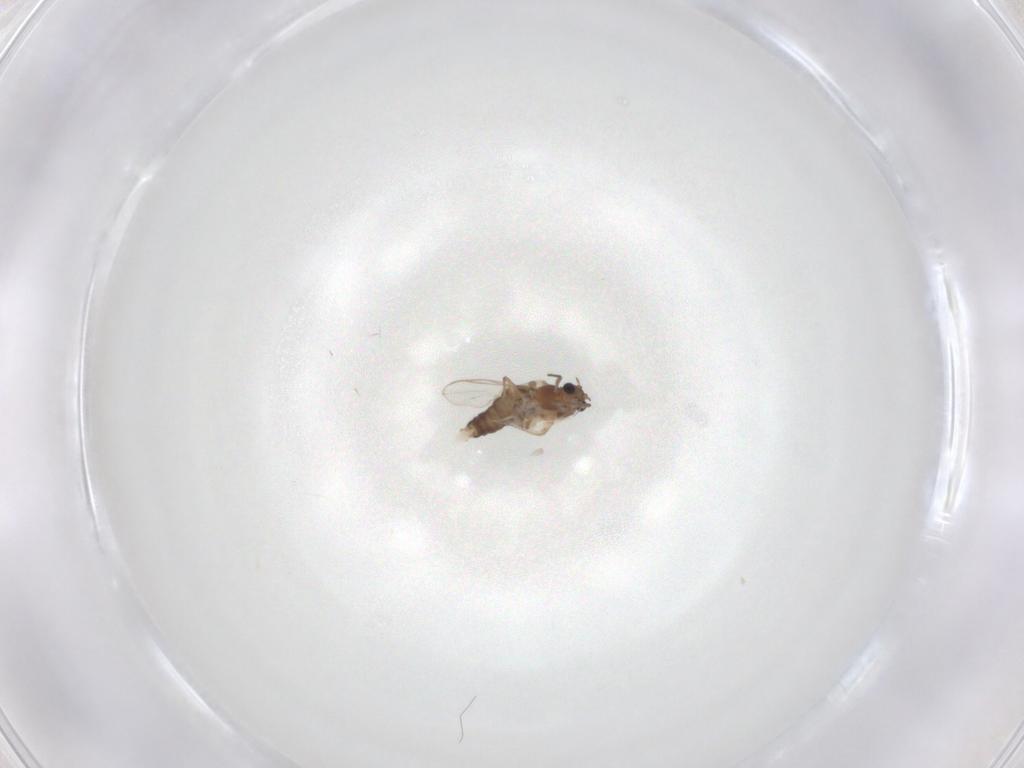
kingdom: Animalia
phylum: Arthropoda
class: Insecta
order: Diptera
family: Chironomidae
